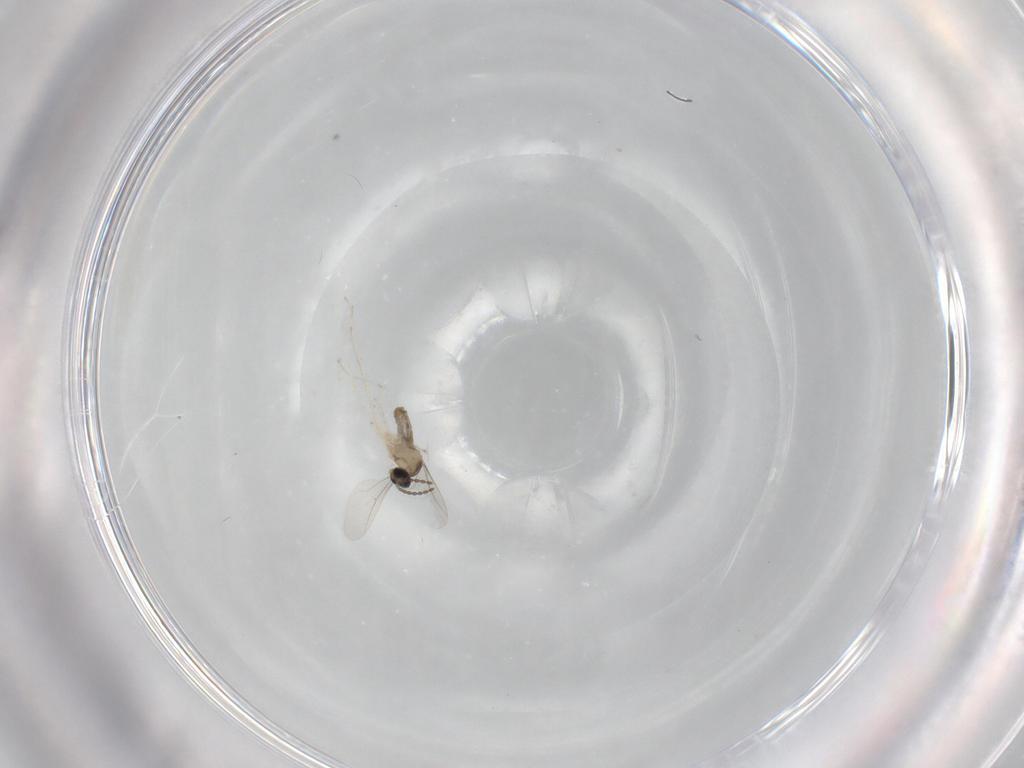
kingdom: Animalia
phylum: Arthropoda
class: Insecta
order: Diptera
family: Cecidomyiidae
